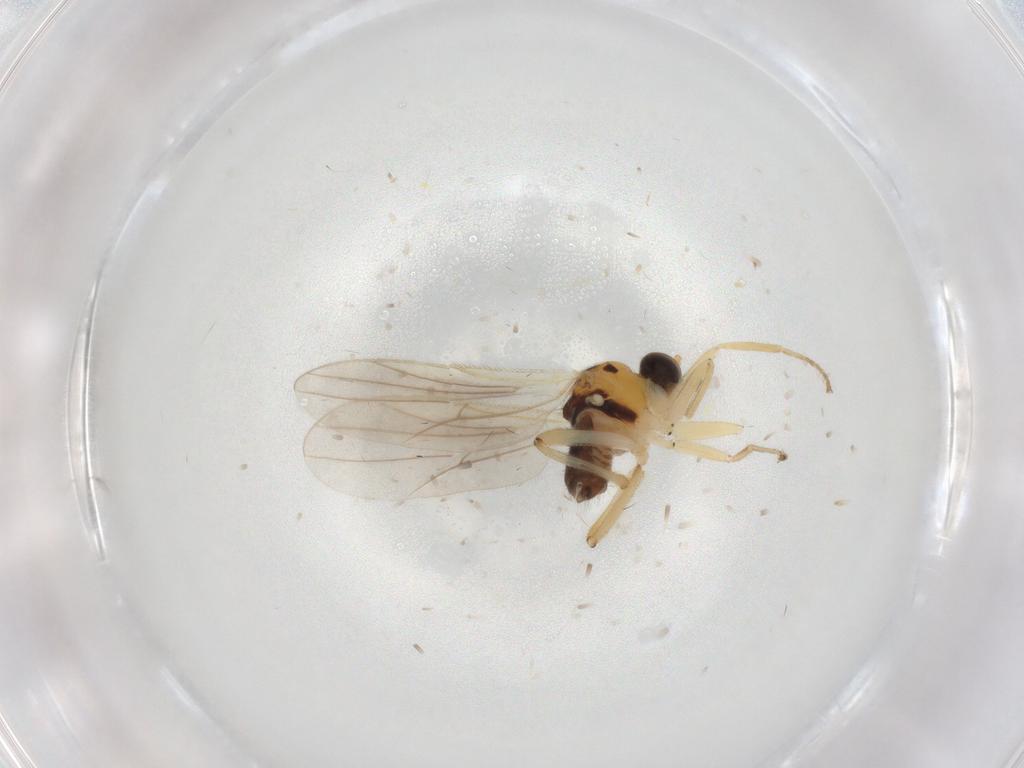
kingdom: Animalia
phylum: Arthropoda
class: Insecta
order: Diptera
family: Hybotidae
